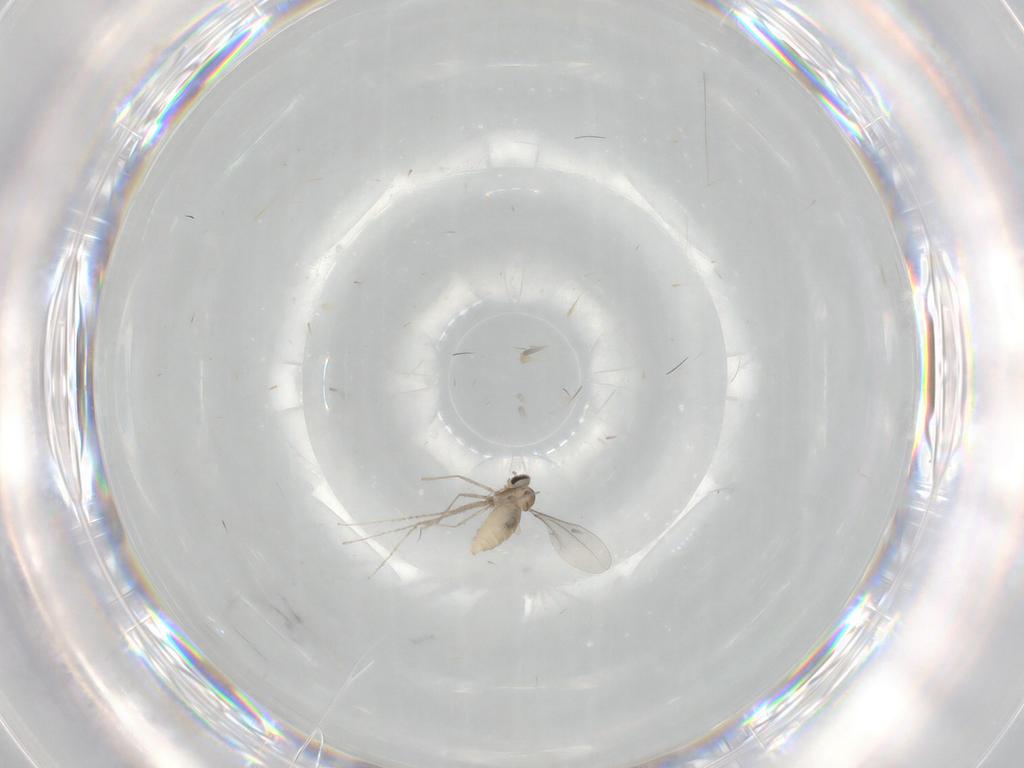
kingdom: Animalia
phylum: Arthropoda
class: Insecta
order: Diptera
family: Cecidomyiidae
